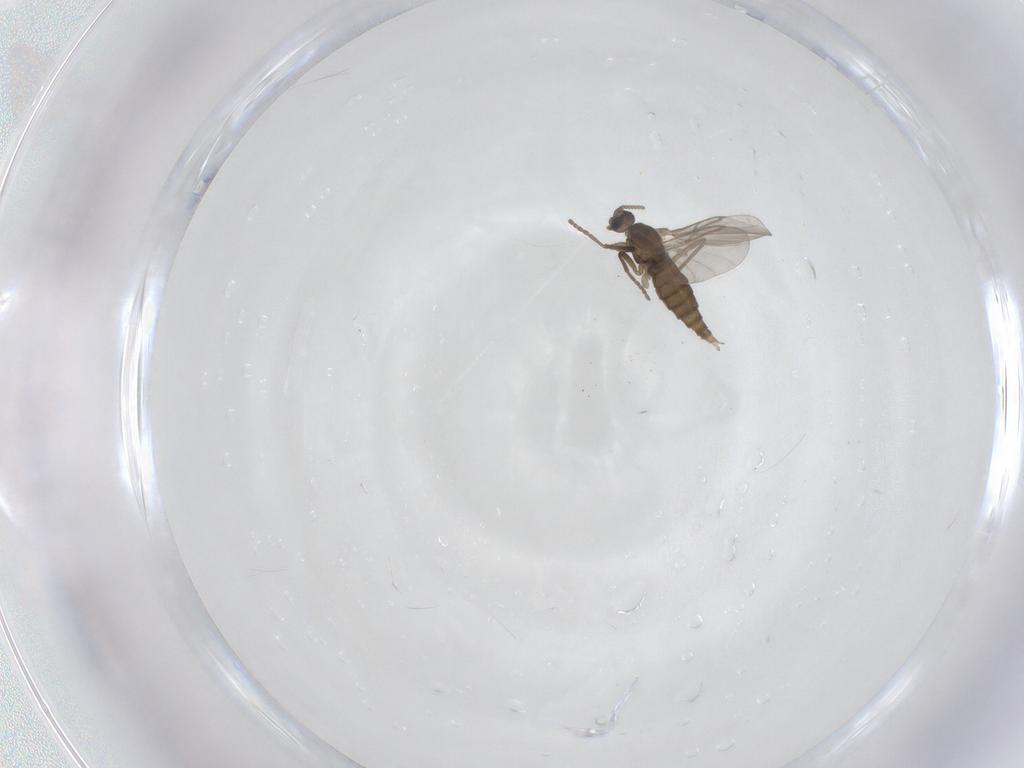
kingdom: Animalia
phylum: Arthropoda
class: Insecta
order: Diptera
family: Cecidomyiidae
